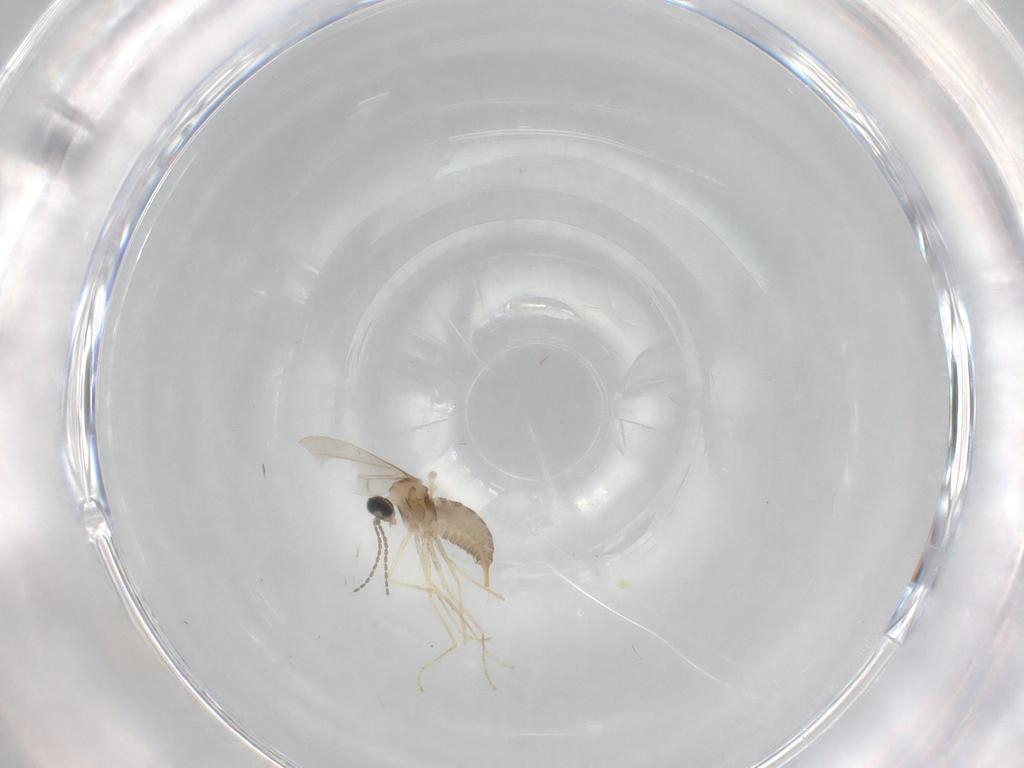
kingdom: Animalia
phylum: Arthropoda
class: Insecta
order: Diptera
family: Cecidomyiidae
